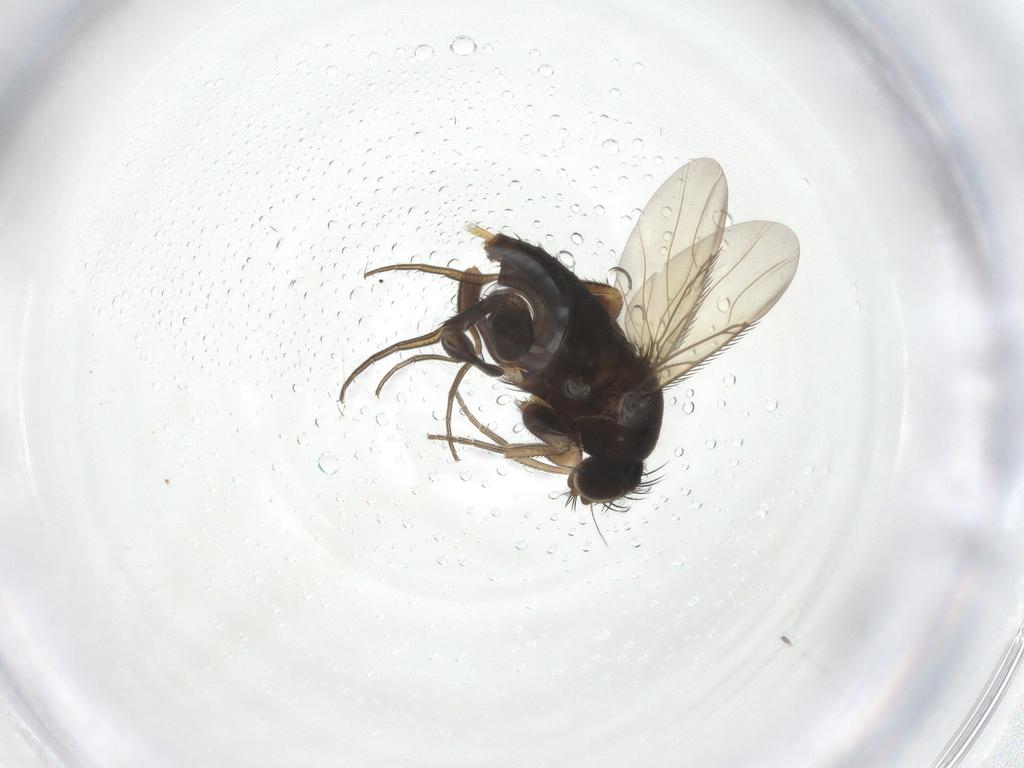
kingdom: Animalia
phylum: Arthropoda
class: Insecta
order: Diptera
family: Phoridae
